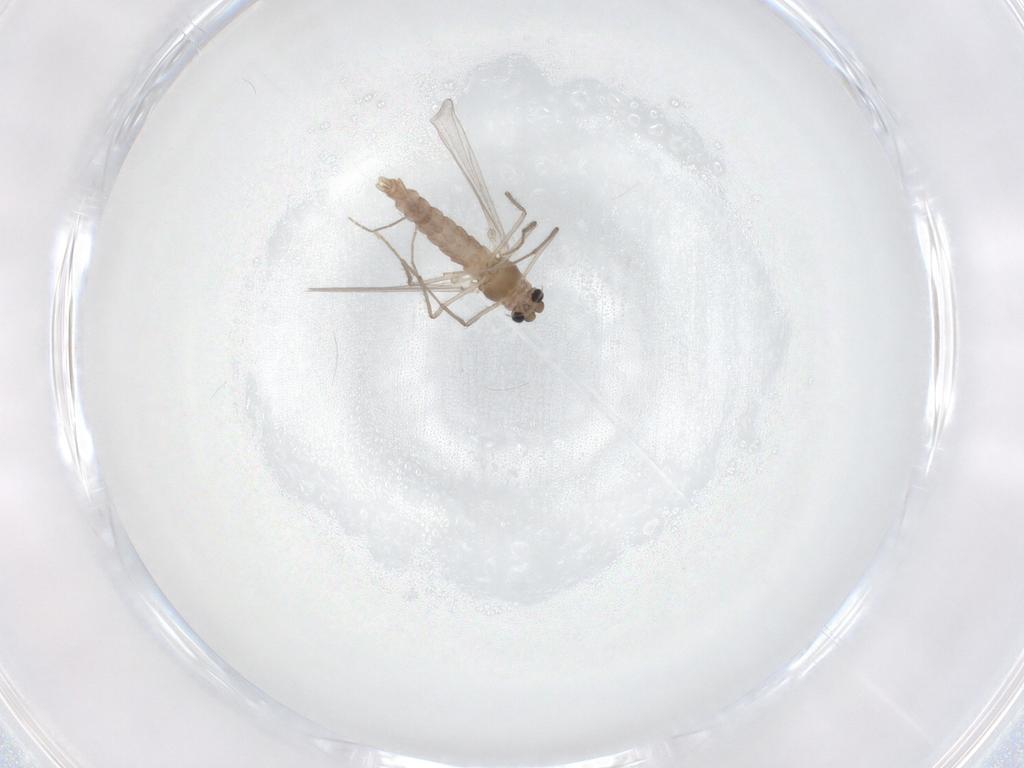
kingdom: Animalia
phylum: Arthropoda
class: Insecta
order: Diptera
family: Chironomidae
